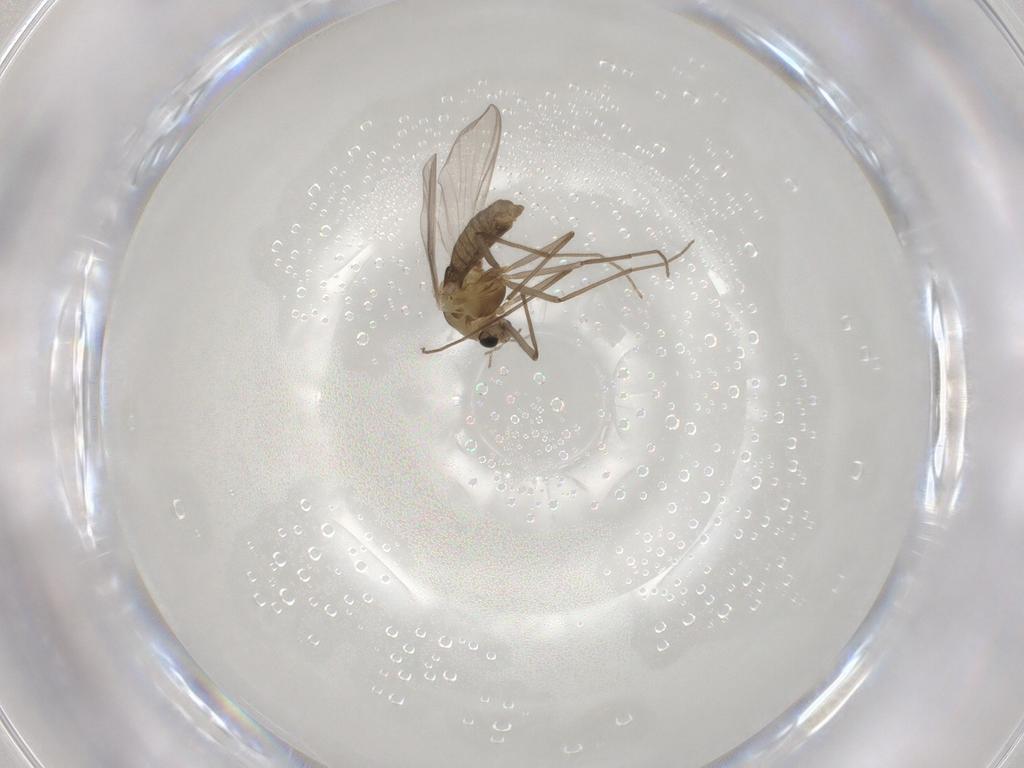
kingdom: Animalia
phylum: Arthropoda
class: Insecta
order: Diptera
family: Chironomidae
